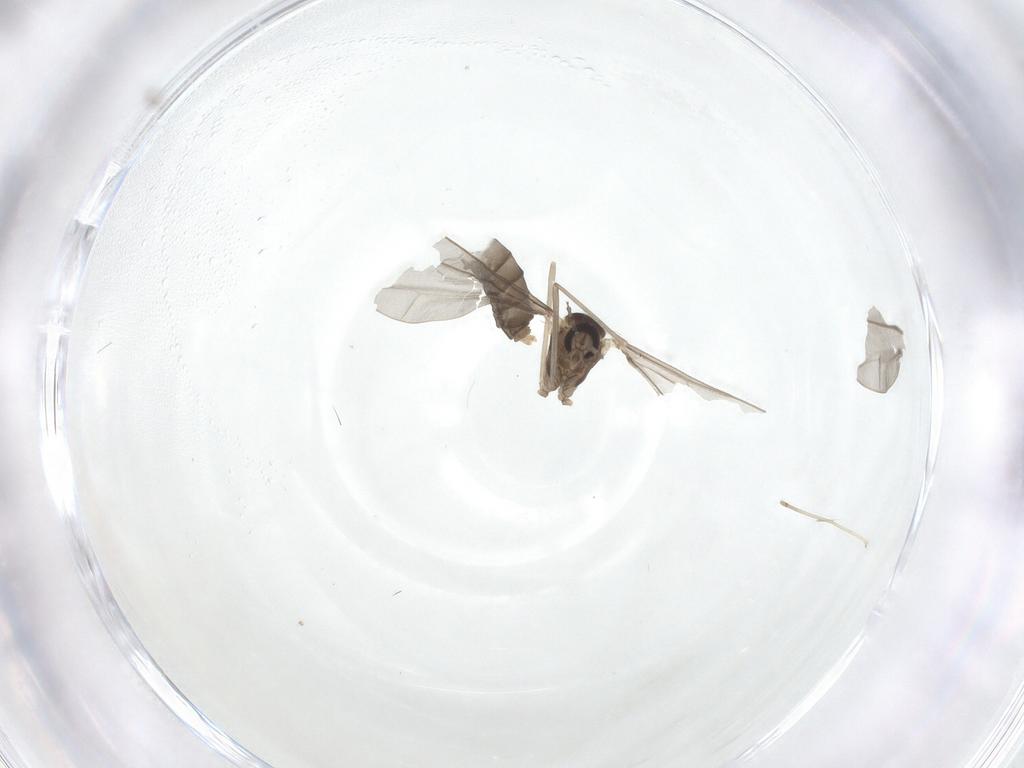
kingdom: Animalia
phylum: Arthropoda
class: Insecta
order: Diptera
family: Cecidomyiidae
